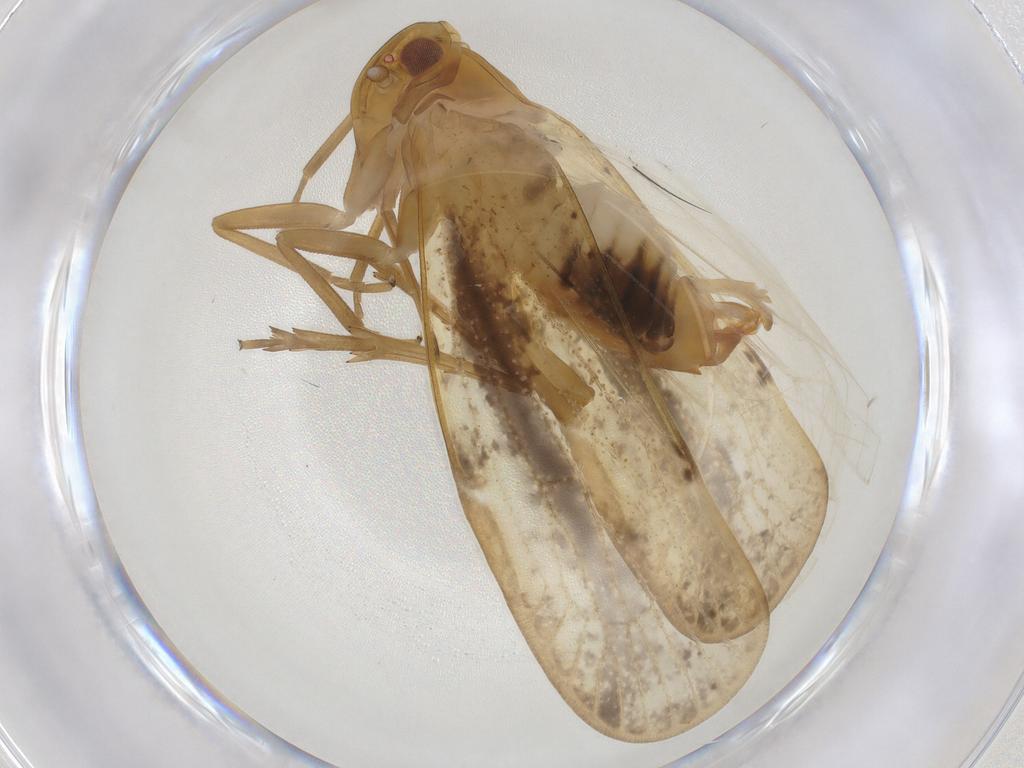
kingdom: Animalia
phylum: Arthropoda
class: Insecta
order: Hemiptera
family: Cixiidae
